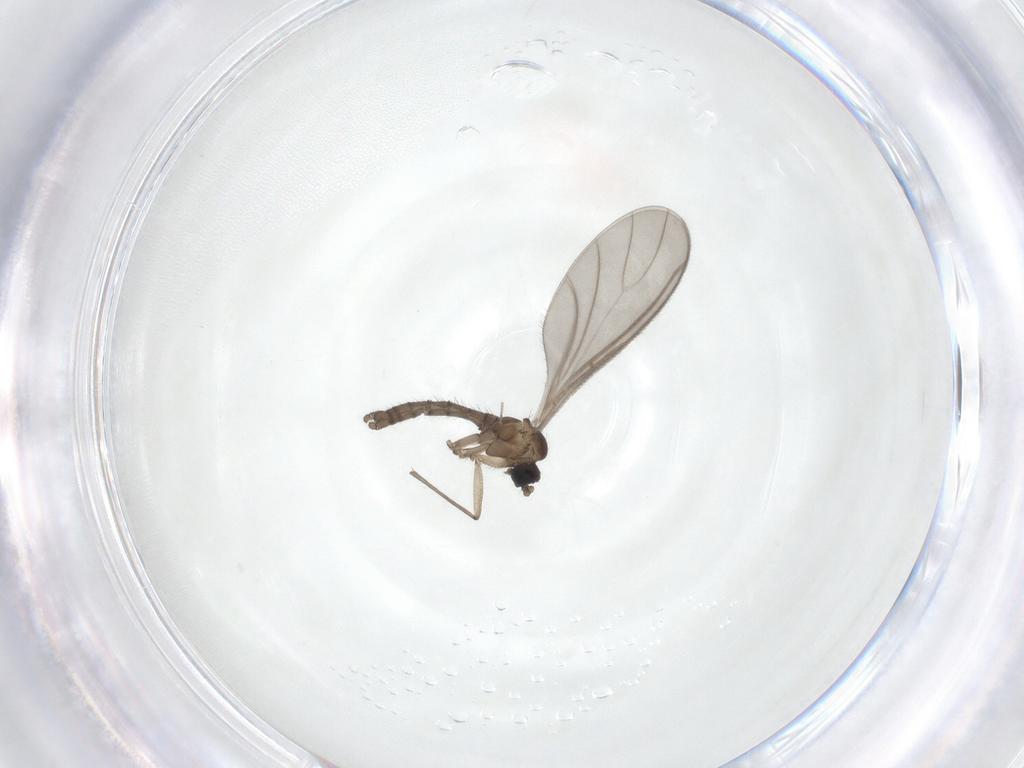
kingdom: Animalia
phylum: Arthropoda
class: Insecta
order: Diptera
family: Sciaridae
